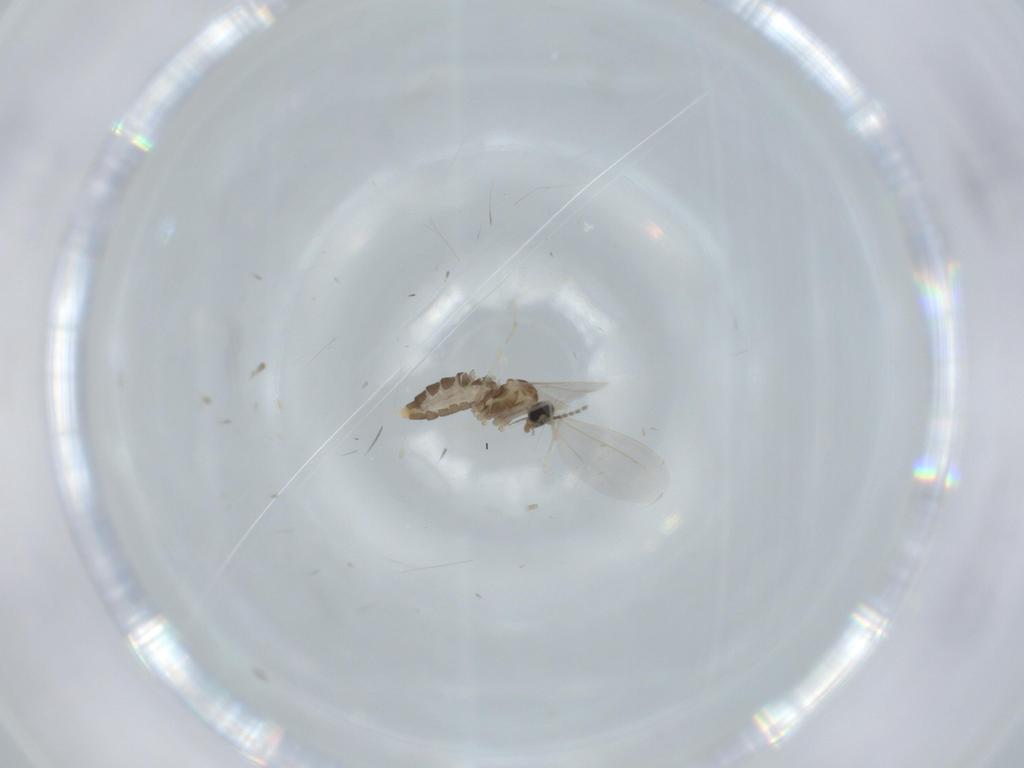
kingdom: Animalia
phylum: Arthropoda
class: Insecta
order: Diptera
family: Cecidomyiidae
